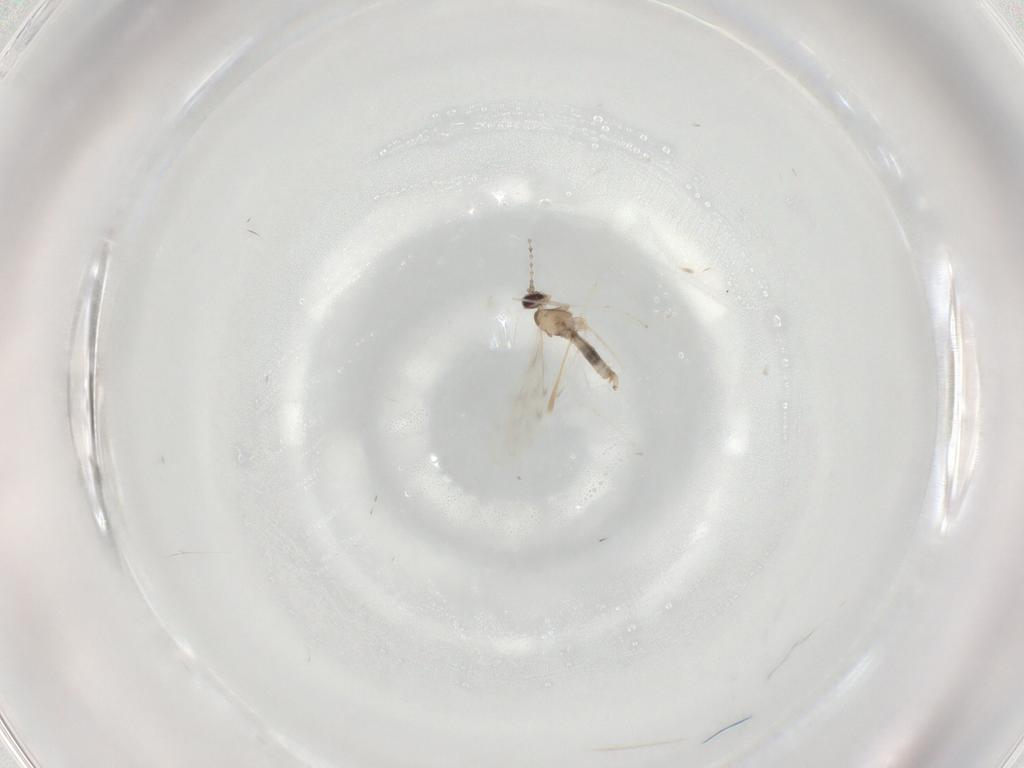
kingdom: Animalia
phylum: Arthropoda
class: Insecta
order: Diptera
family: Cecidomyiidae
